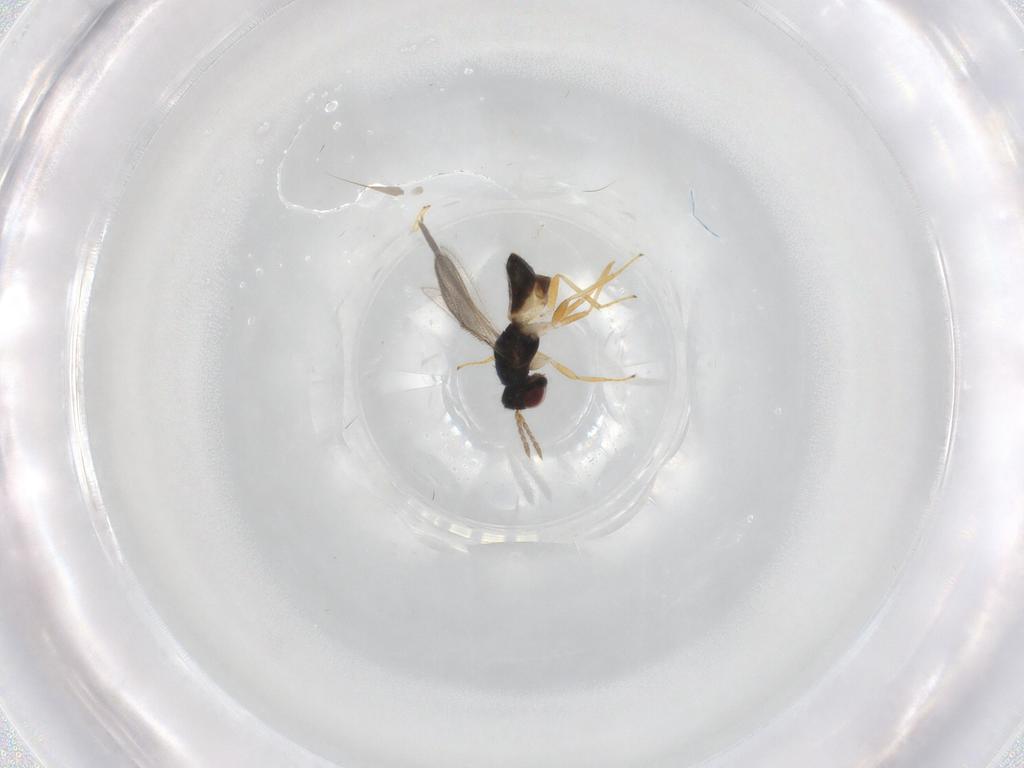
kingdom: Animalia
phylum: Arthropoda
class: Insecta
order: Hymenoptera
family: Eulophidae
